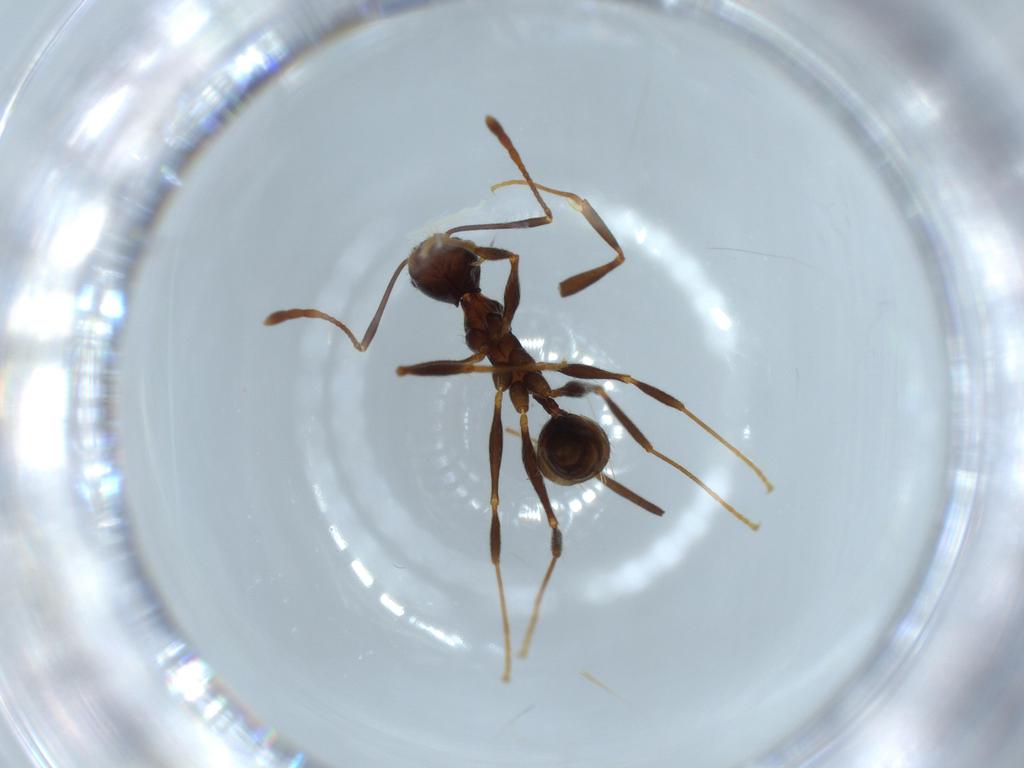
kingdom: Animalia
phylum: Arthropoda
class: Insecta
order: Hymenoptera
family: Formicidae
